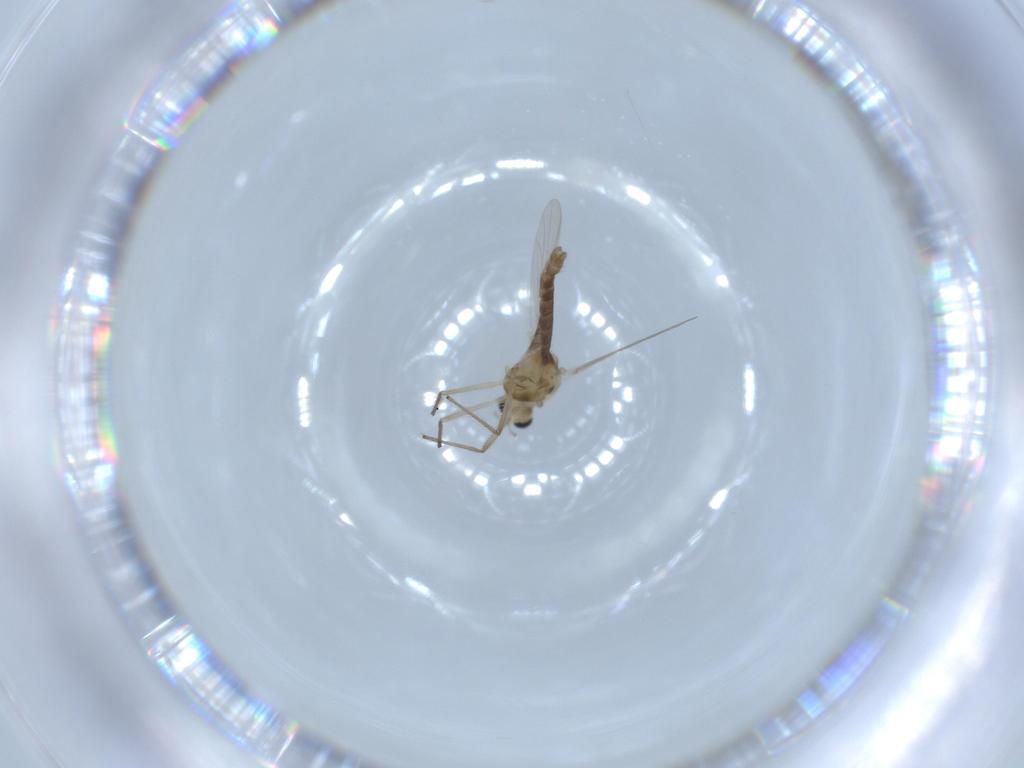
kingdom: Animalia
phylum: Arthropoda
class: Insecta
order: Diptera
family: Chironomidae
